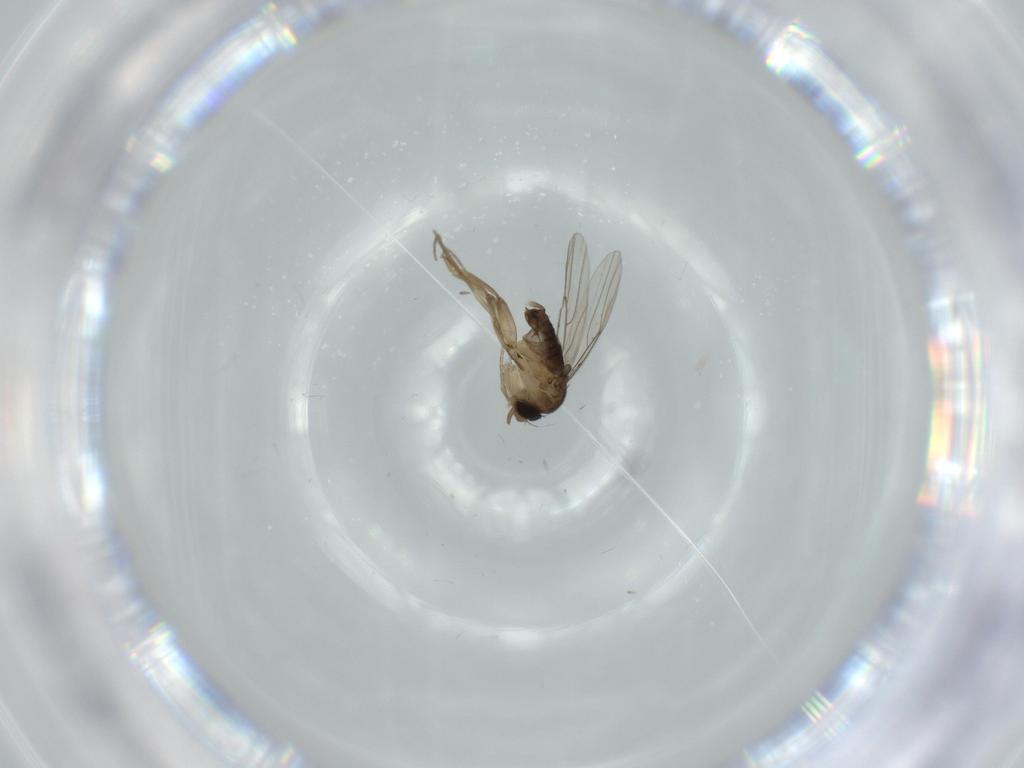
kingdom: Animalia
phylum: Arthropoda
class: Insecta
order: Diptera
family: Phoridae
